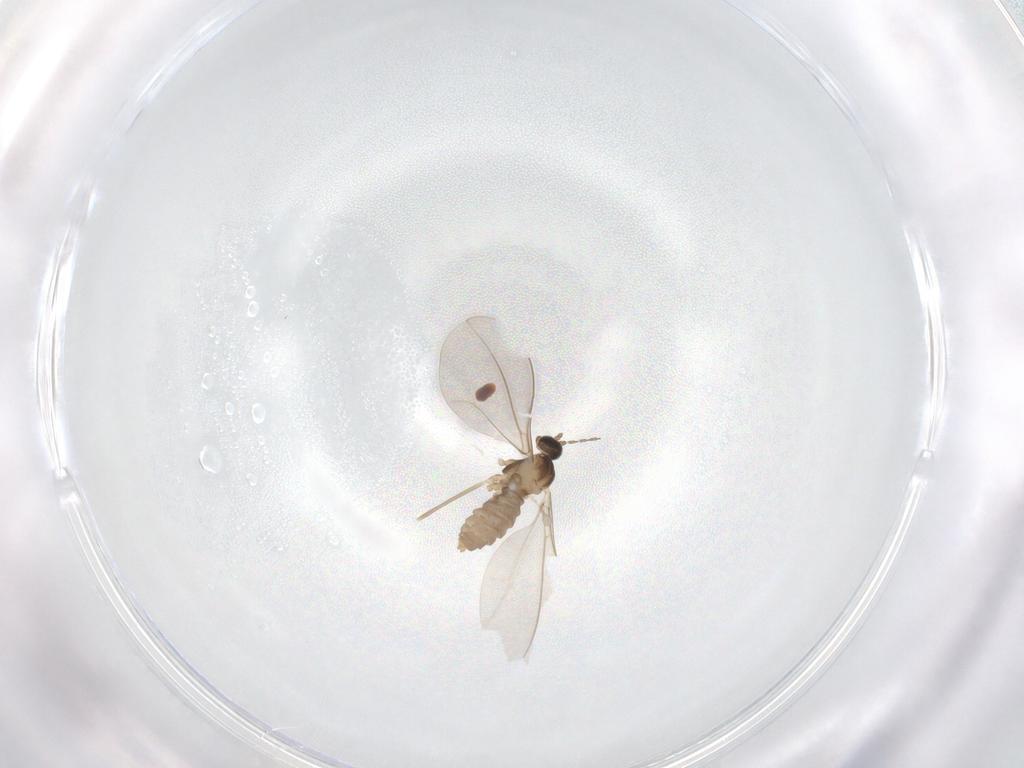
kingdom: Animalia
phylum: Arthropoda
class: Insecta
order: Diptera
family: Cecidomyiidae
